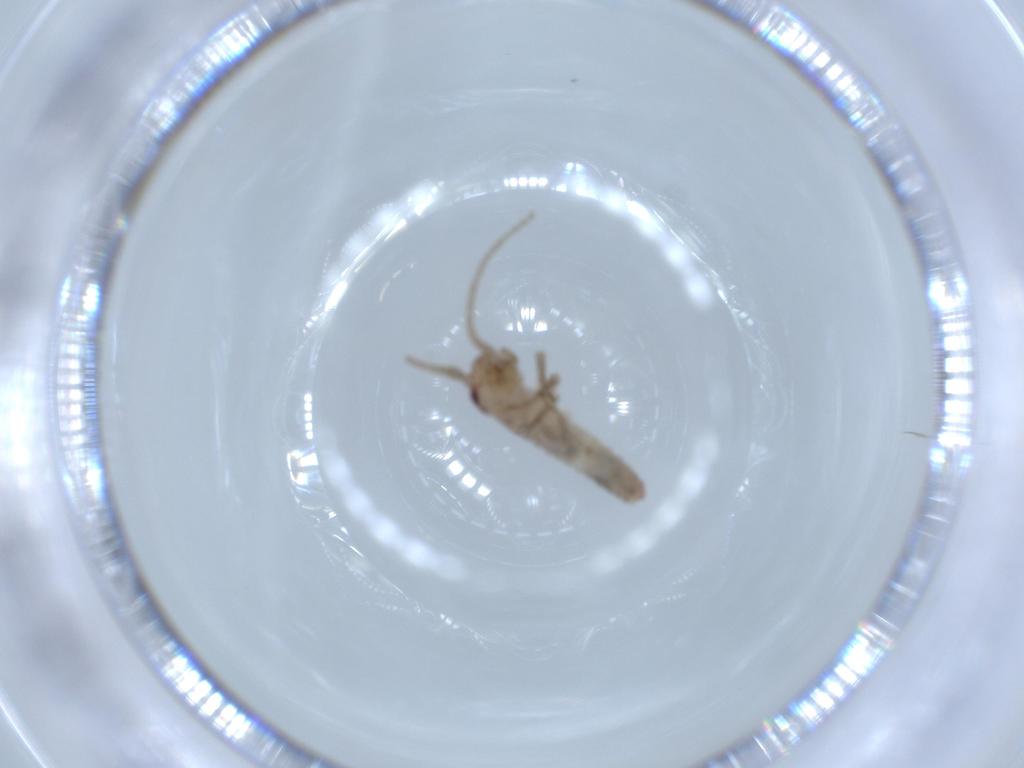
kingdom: Animalia
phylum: Arthropoda
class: Insecta
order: Orthoptera
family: Mogoplistidae
